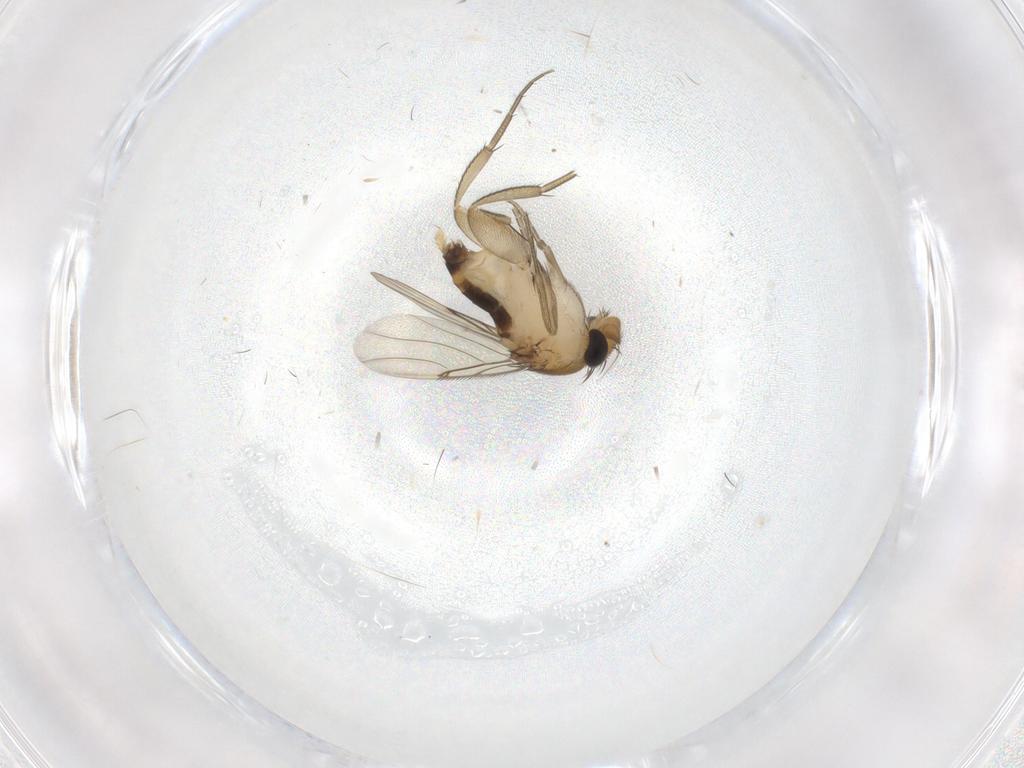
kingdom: Animalia
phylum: Arthropoda
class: Insecta
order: Diptera
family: Phoridae
